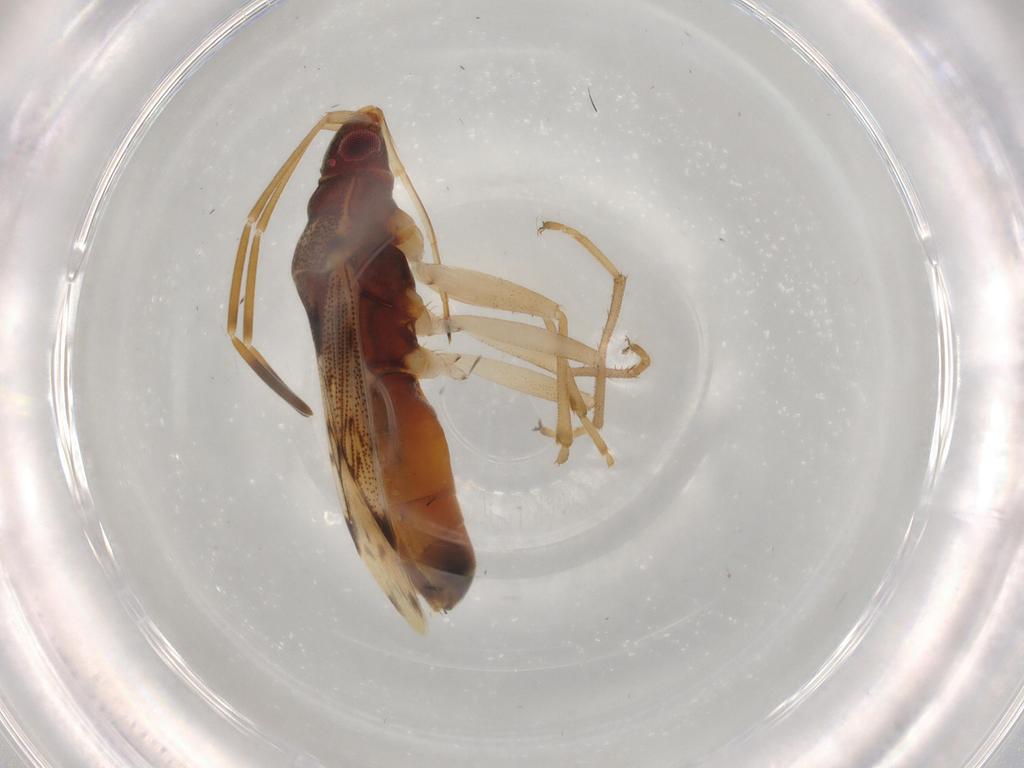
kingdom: Animalia
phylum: Arthropoda
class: Insecta
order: Hemiptera
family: Rhyparochromidae
